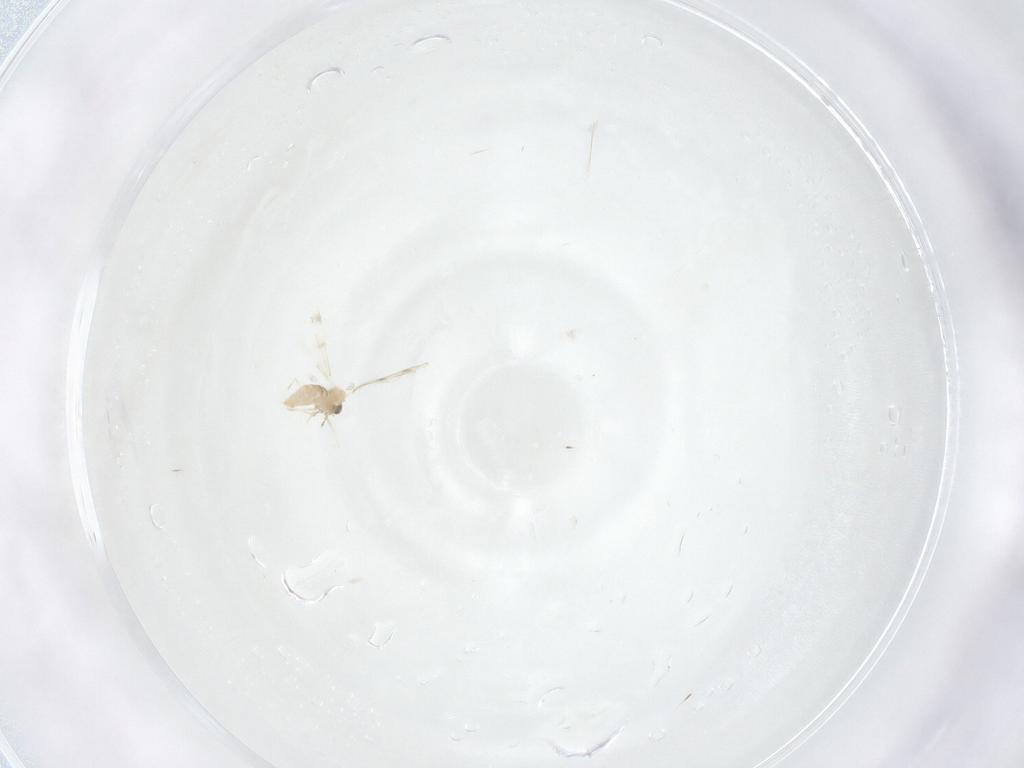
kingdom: Animalia
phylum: Arthropoda
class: Insecta
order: Diptera
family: Cecidomyiidae
